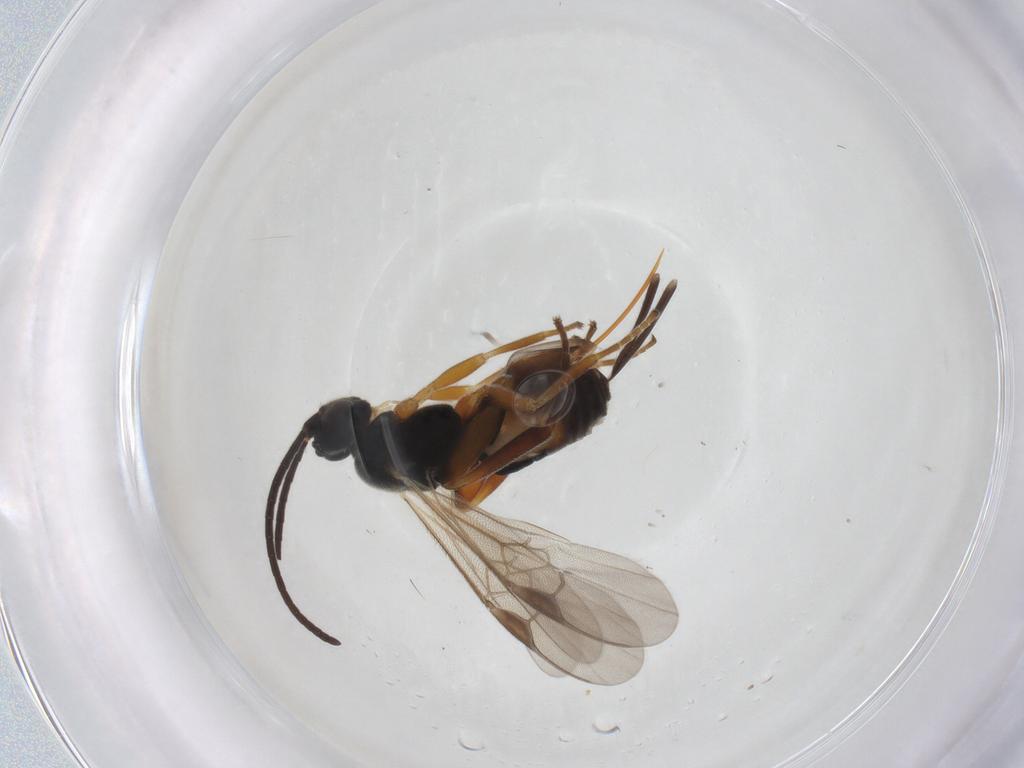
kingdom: Animalia
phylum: Arthropoda
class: Insecta
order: Hymenoptera
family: Braconidae
